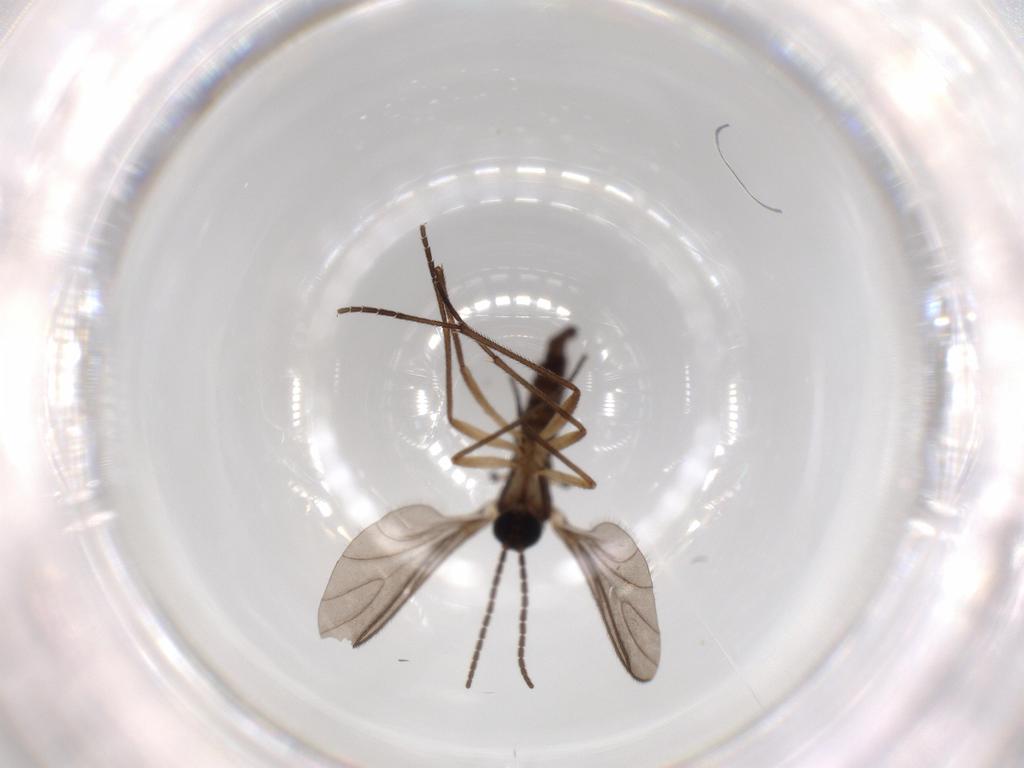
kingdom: Animalia
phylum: Arthropoda
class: Insecta
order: Diptera
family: Sciaridae
